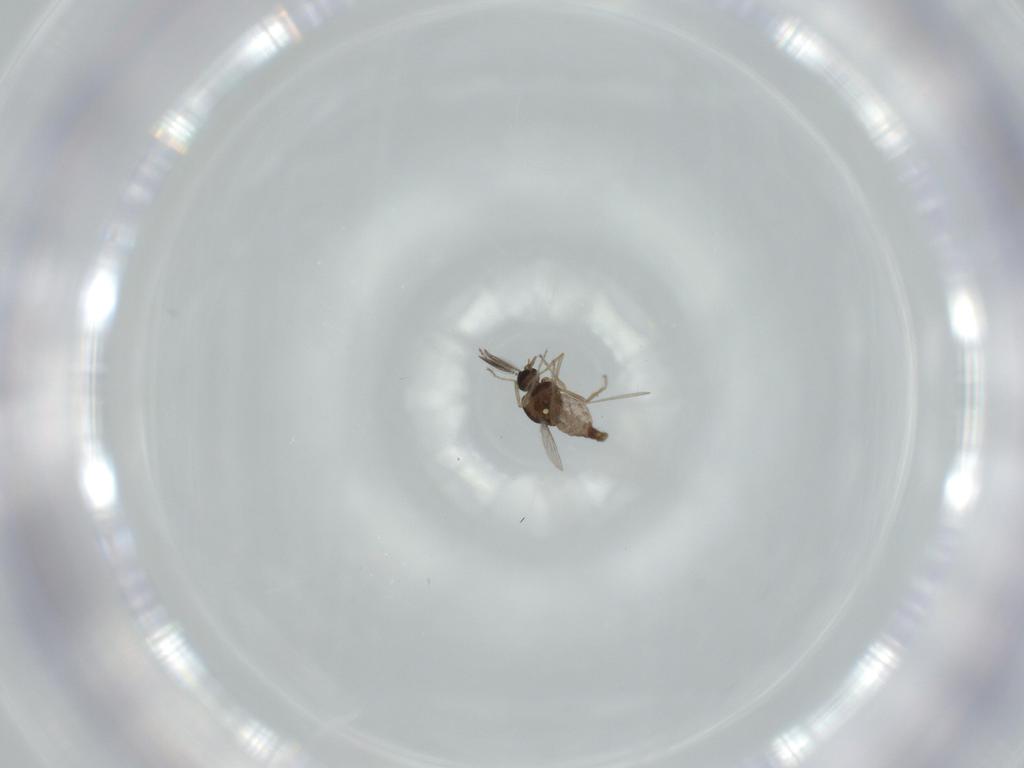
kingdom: Animalia
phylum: Arthropoda
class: Insecta
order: Diptera
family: Ceratopogonidae
